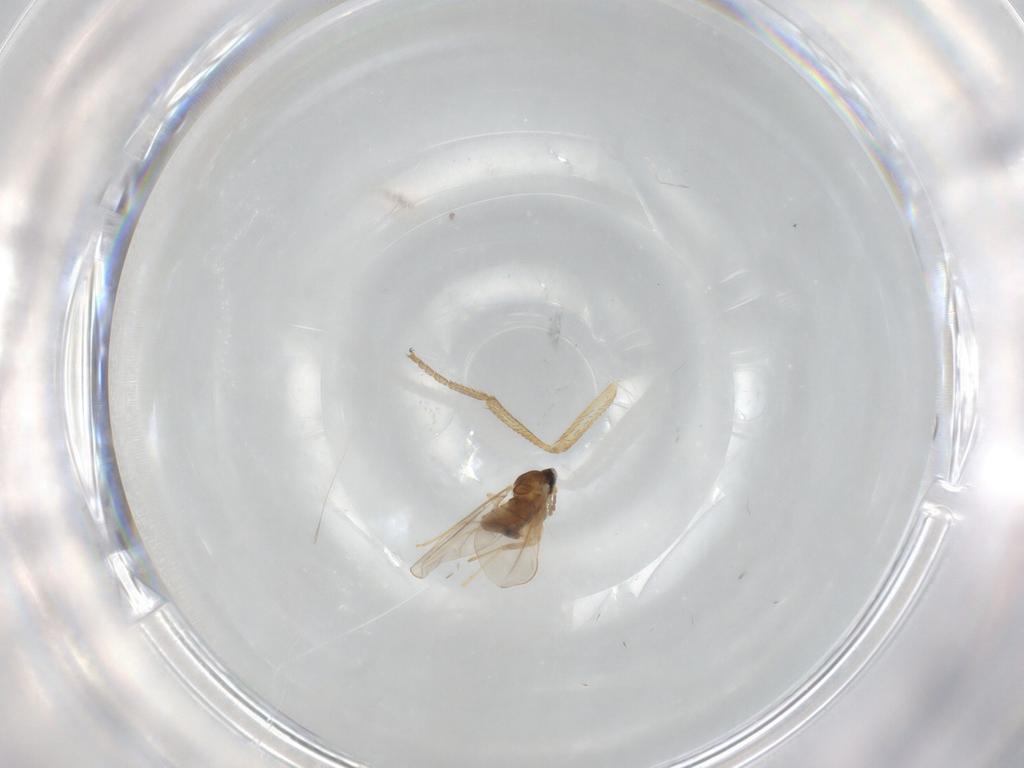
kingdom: Animalia
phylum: Arthropoda
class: Insecta
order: Diptera
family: Cecidomyiidae
